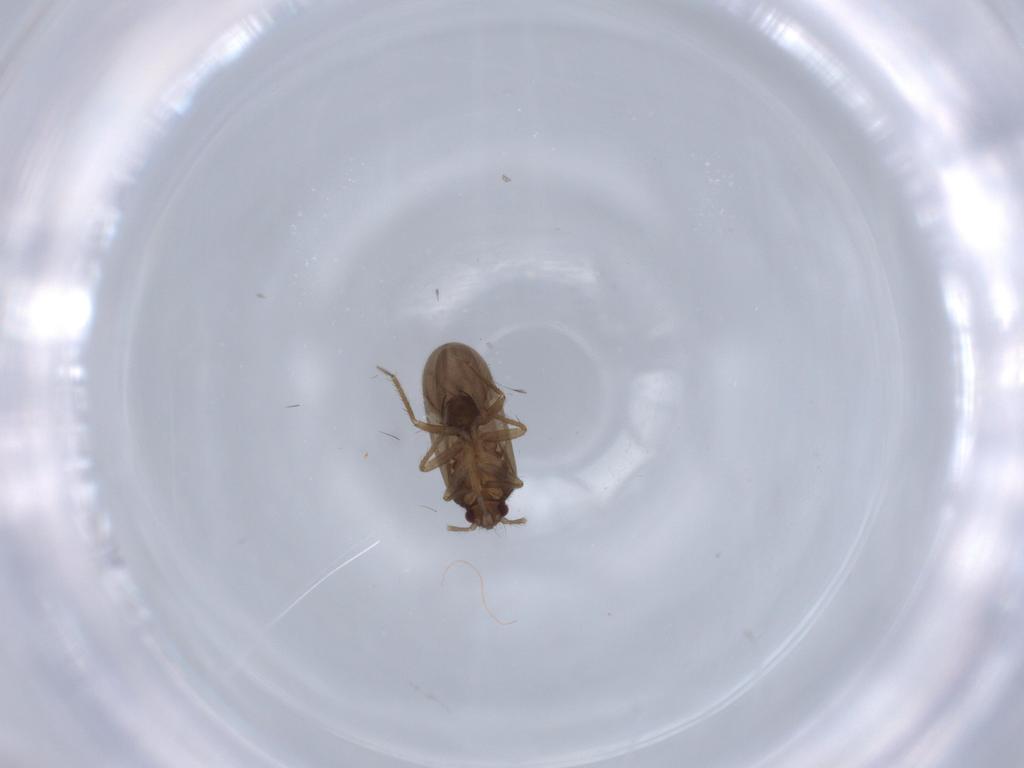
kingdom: Animalia
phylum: Arthropoda
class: Insecta
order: Hemiptera
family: Ceratocombidae
